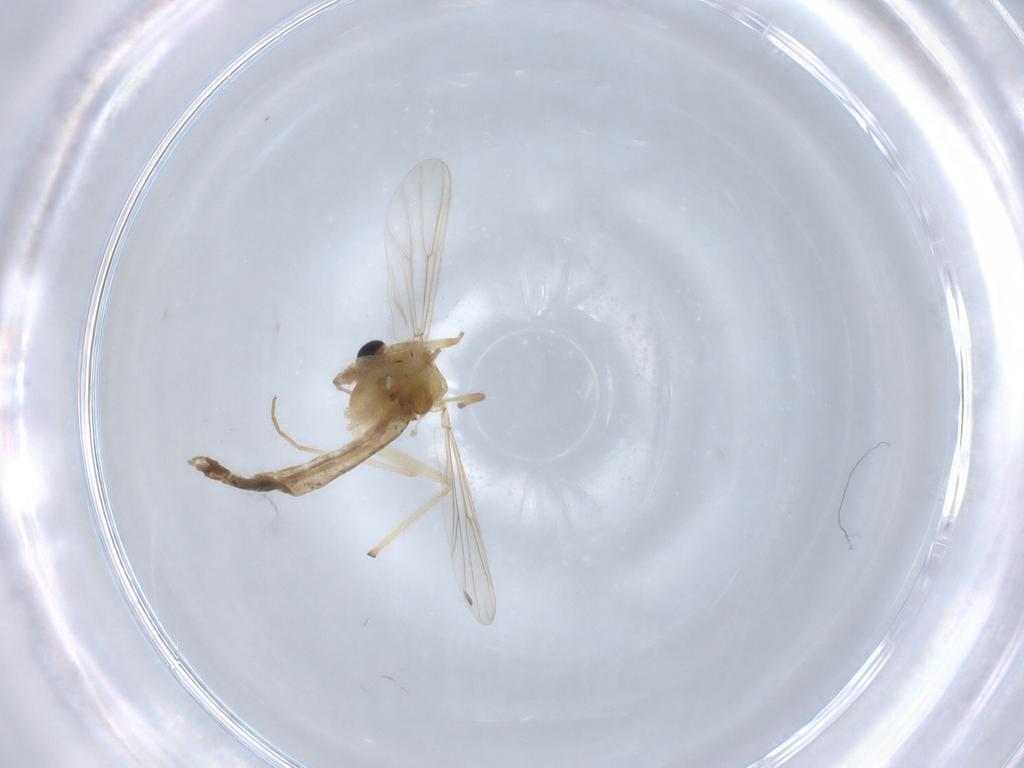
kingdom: Animalia
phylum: Arthropoda
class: Insecta
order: Diptera
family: Chironomidae
